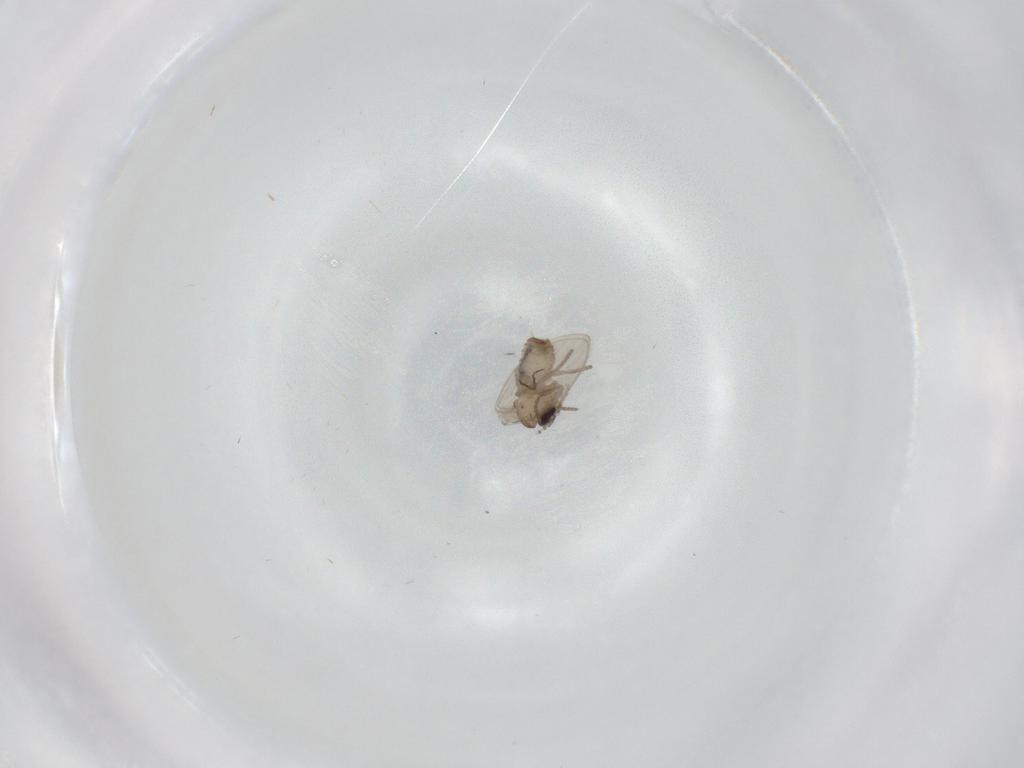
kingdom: Animalia
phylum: Arthropoda
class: Insecta
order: Diptera
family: Psychodidae
